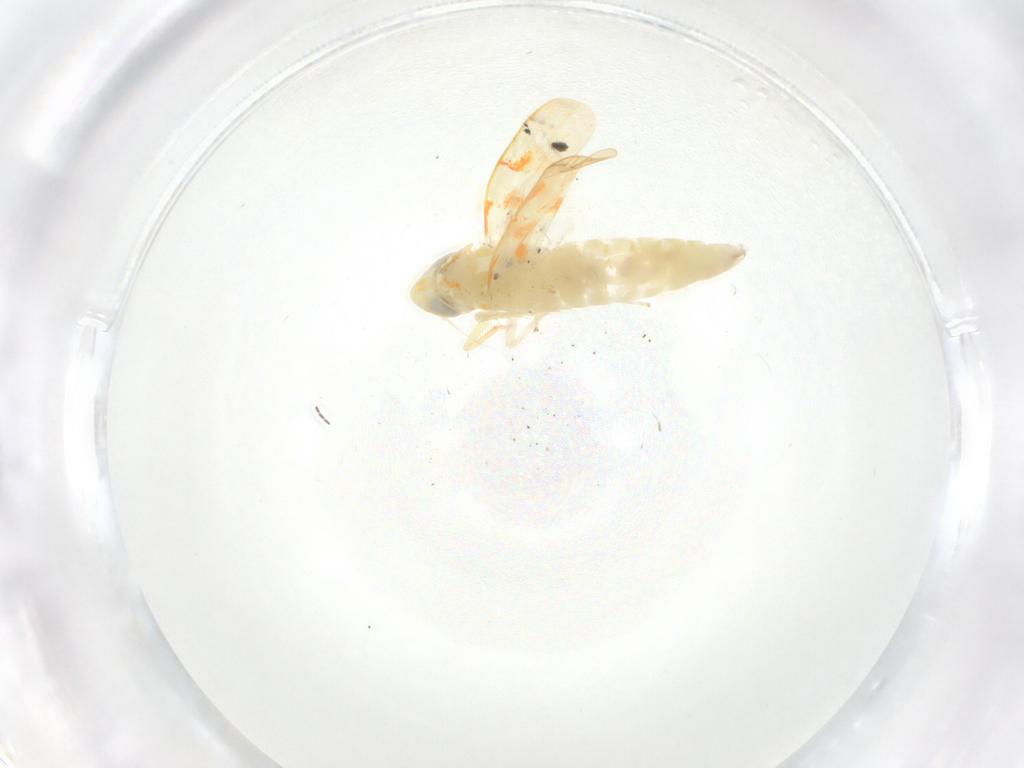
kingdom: Animalia
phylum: Arthropoda
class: Insecta
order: Hemiptera
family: Cicadellidae
